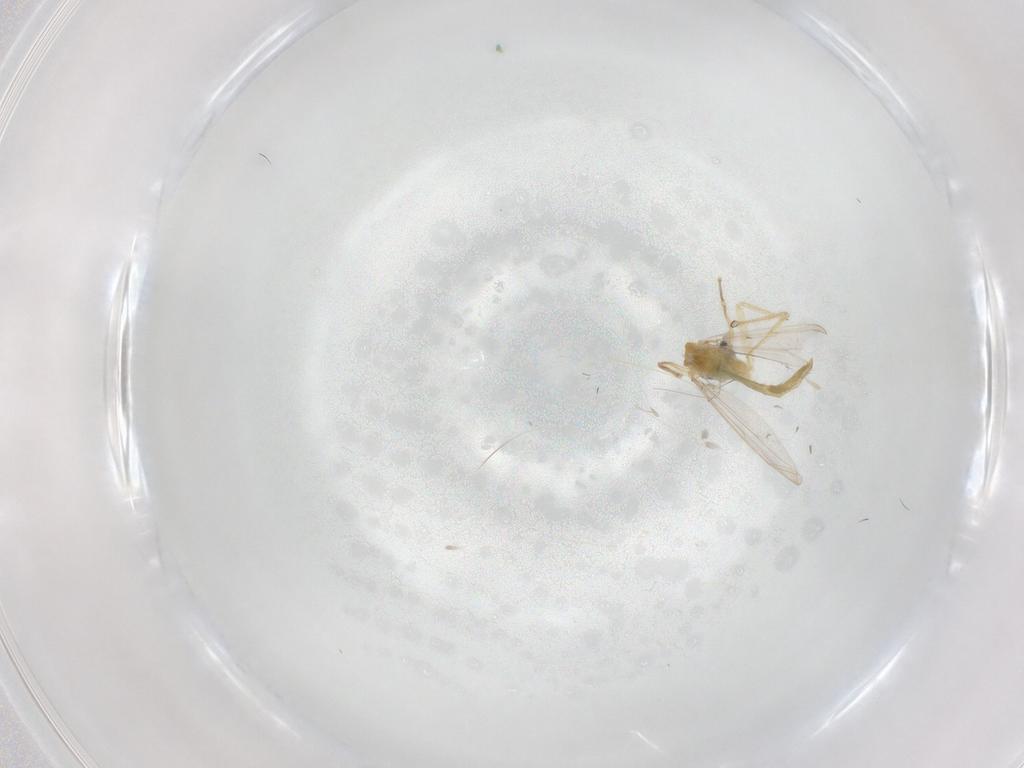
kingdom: Animalia
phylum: Arthropoda
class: Insecta
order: Diptera
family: Chironomidae
